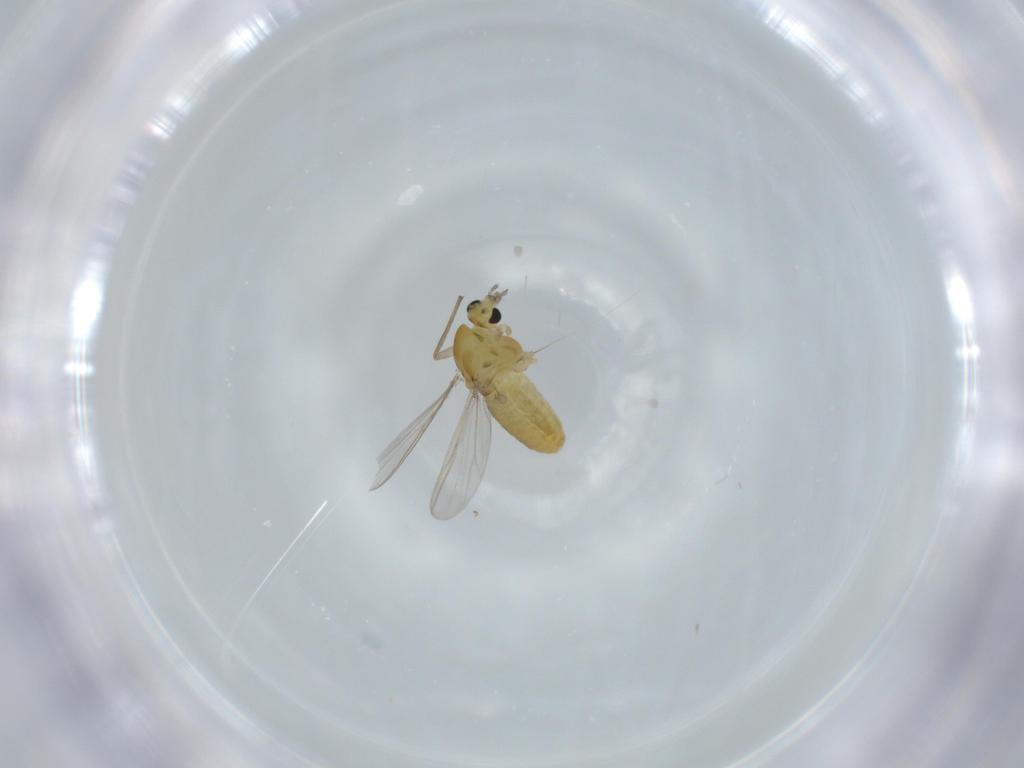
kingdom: Animalia
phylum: Arthropoda
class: Insecta
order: Diptera
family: Chironomidae
